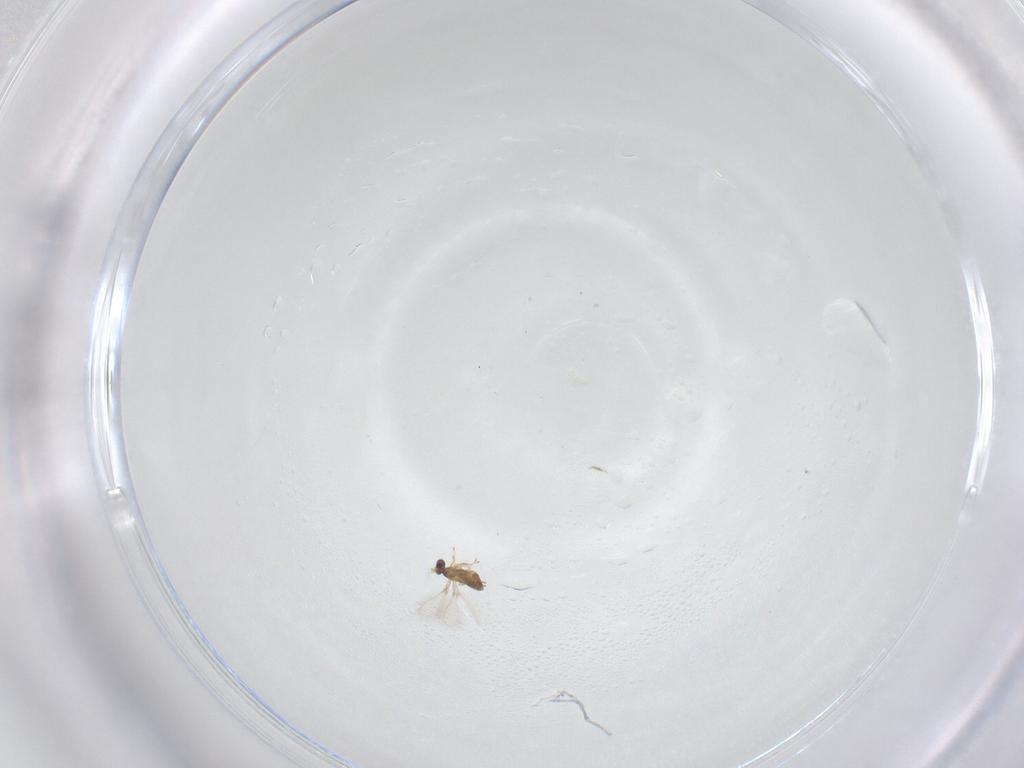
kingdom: Animalia
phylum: Arthropoda
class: Insecta
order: Hymenoptera
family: Mymaridae
